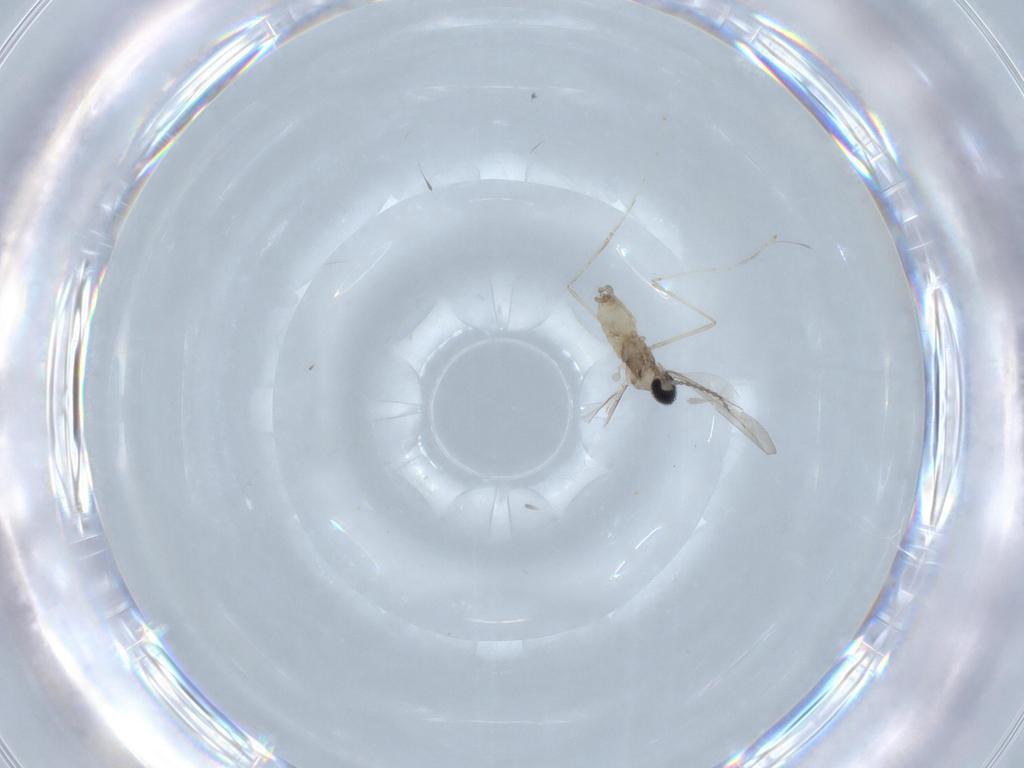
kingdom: Animalia
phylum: Arthropoda
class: Insecta
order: Diptera
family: Cecidomyiidae
